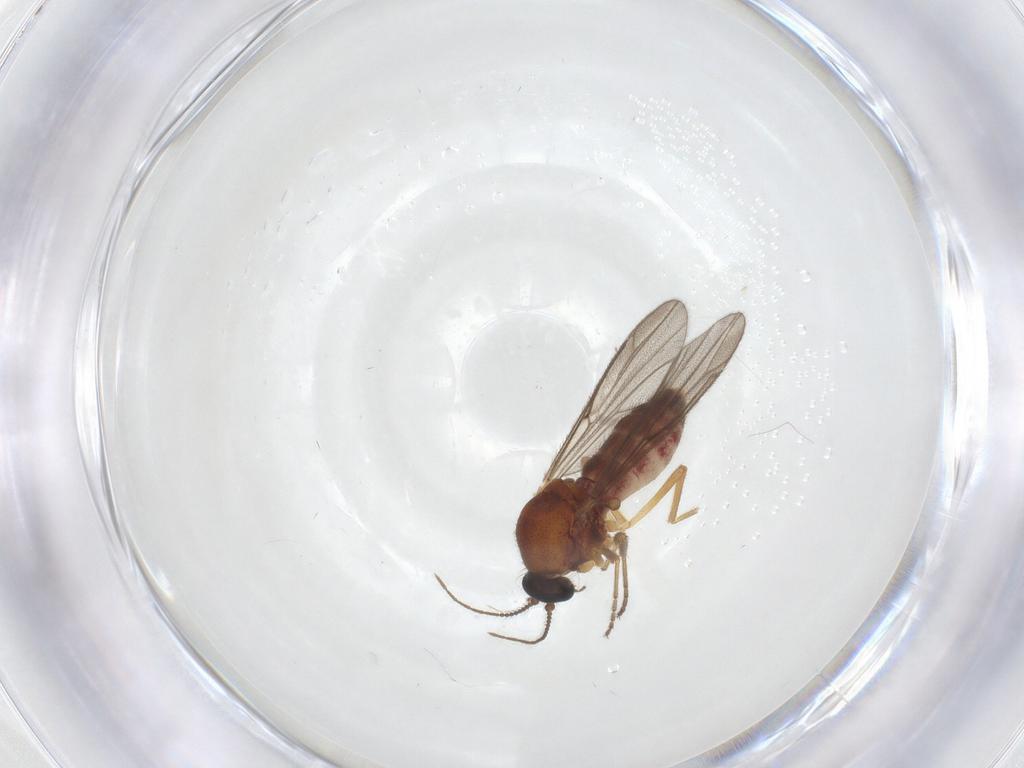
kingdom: Animalia
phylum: Arthropoda
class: Insecta
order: Diptera
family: Ceratopogonidae
